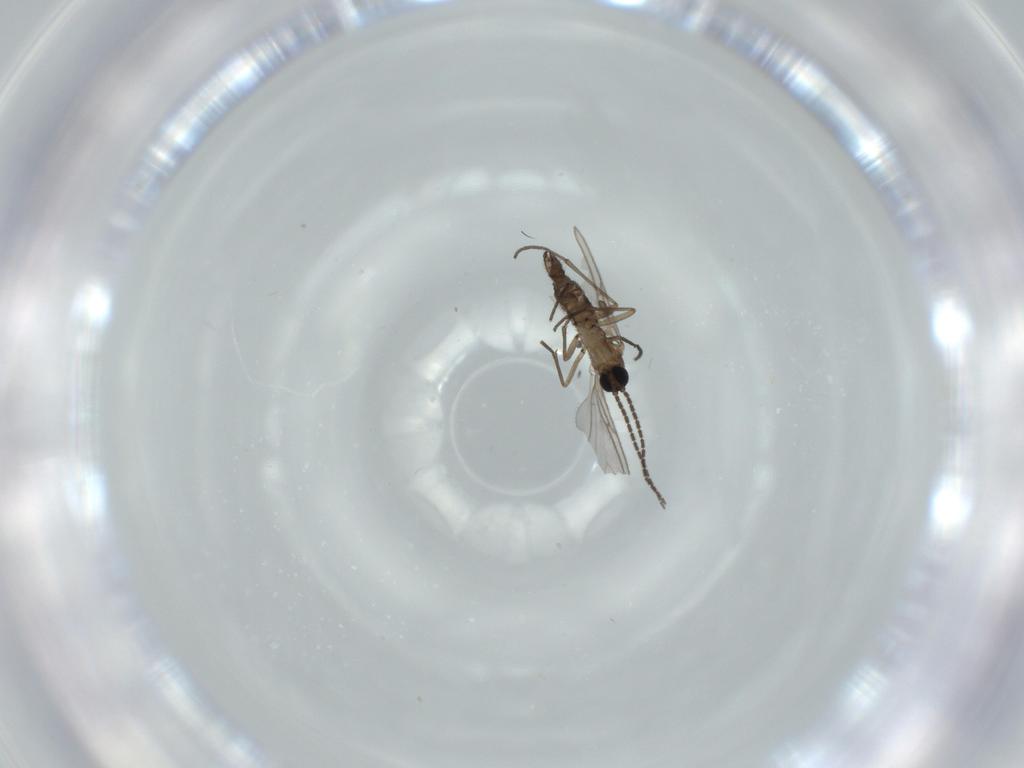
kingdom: Animalia
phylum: Arthropoda
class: Insecta
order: Diptera
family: Sciaridae
